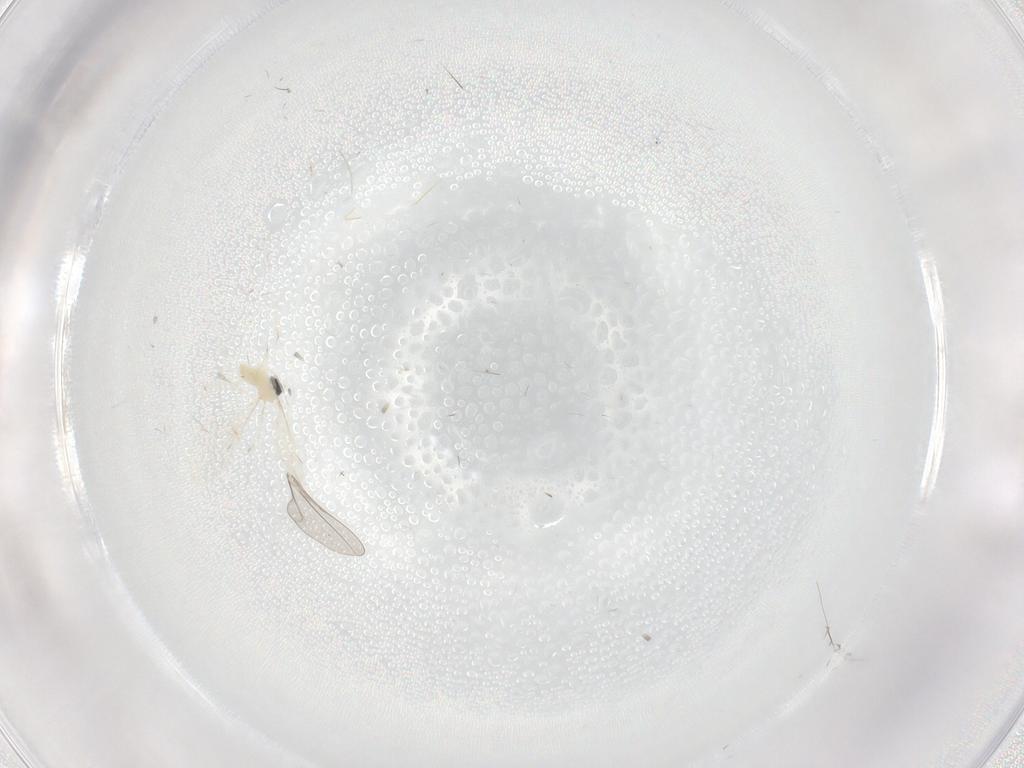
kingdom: Animalia
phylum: Arthropoda
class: Insecta
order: Diptera
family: Cecidomyiidae
